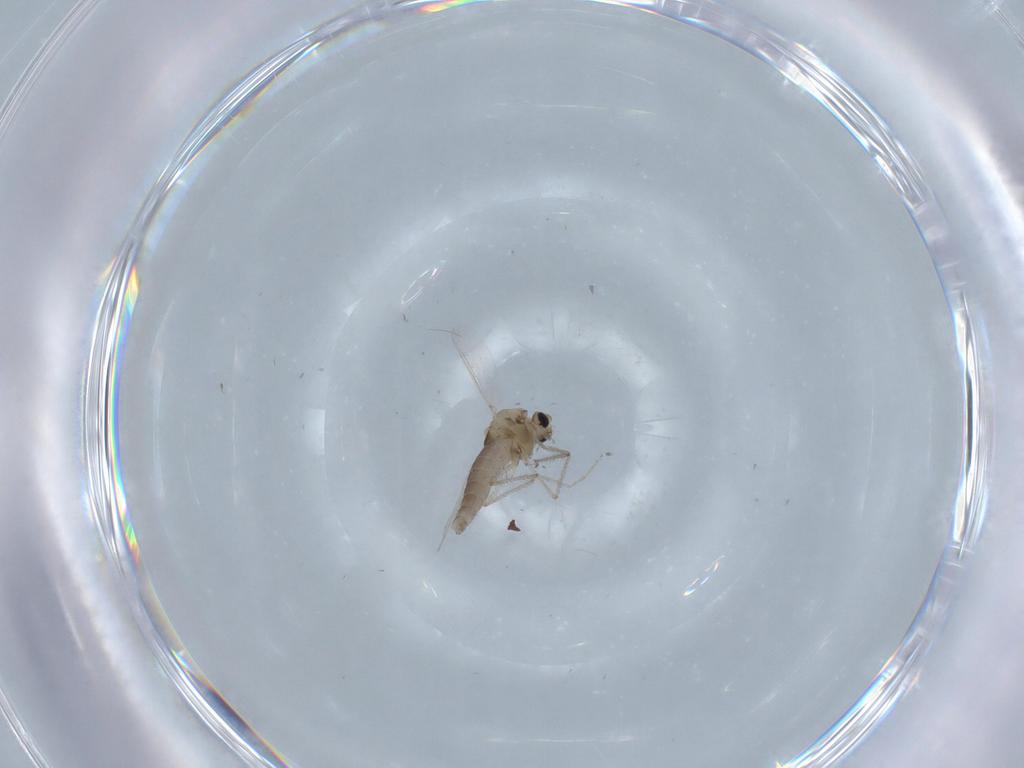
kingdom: Animalia
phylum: Arthropoda
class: Insecta
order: Diptera
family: Chironomidae
